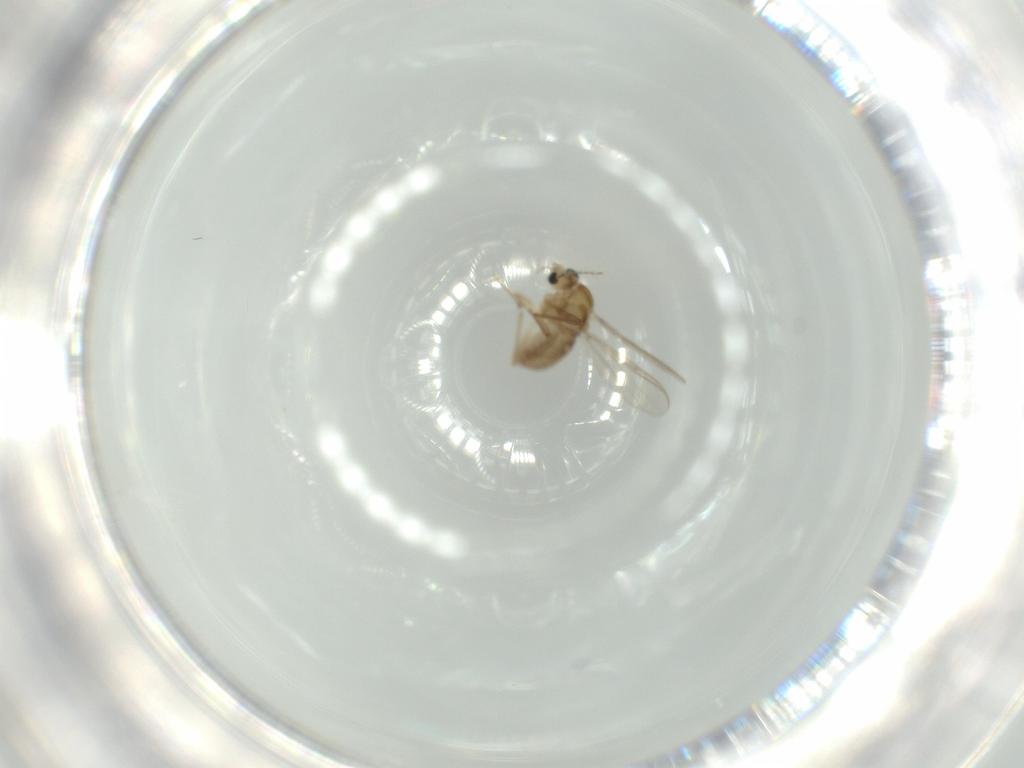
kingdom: Animalia
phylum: Arthropoda
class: Insecta
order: Diptera
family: Chironomidae
